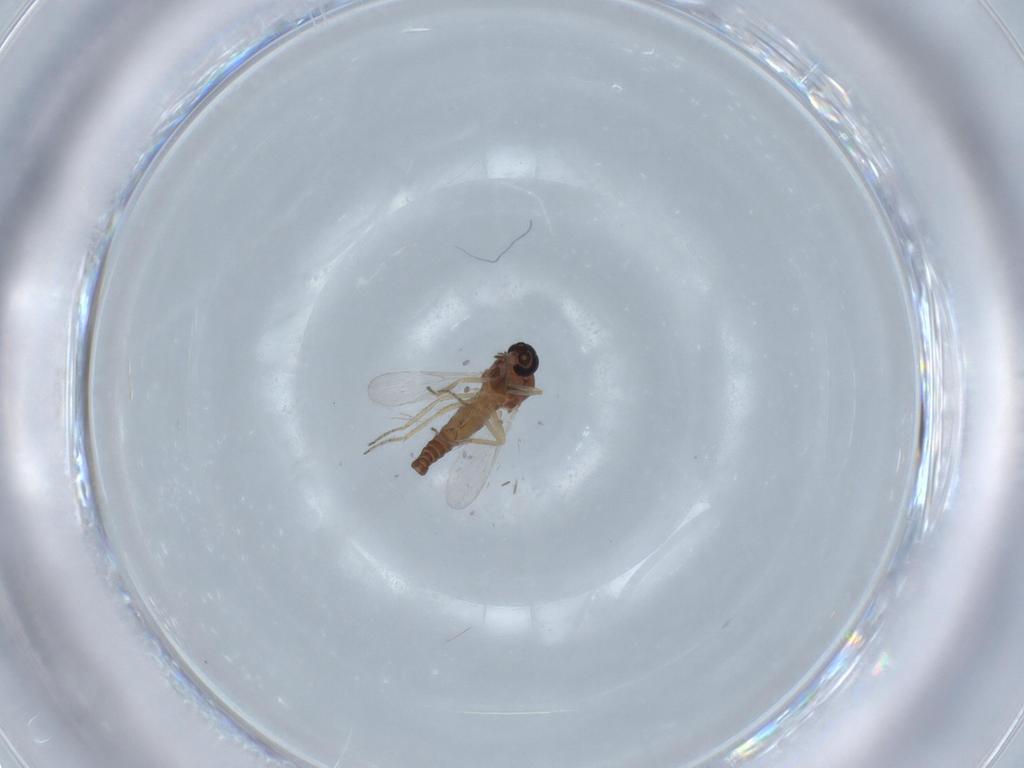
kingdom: Animalia
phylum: Arthropoda
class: Insecta
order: Diptera
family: Ceratopogonidae
